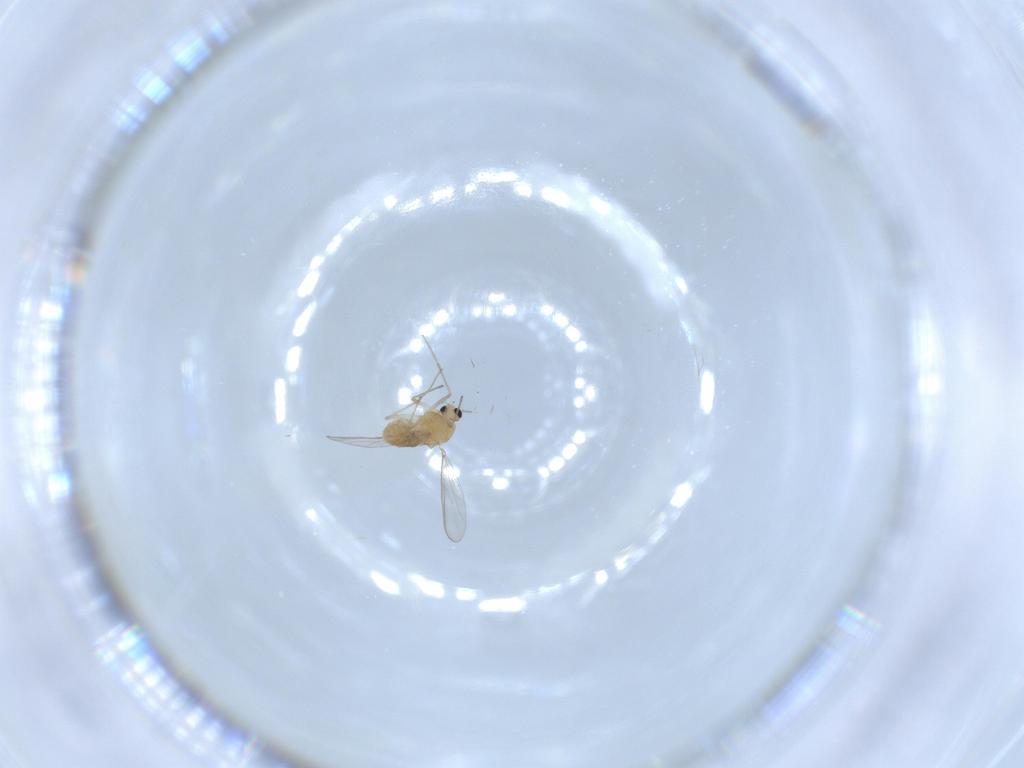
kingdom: Animalia
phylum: Arthropoda
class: Insecta
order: Diptera
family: Chironomidae
